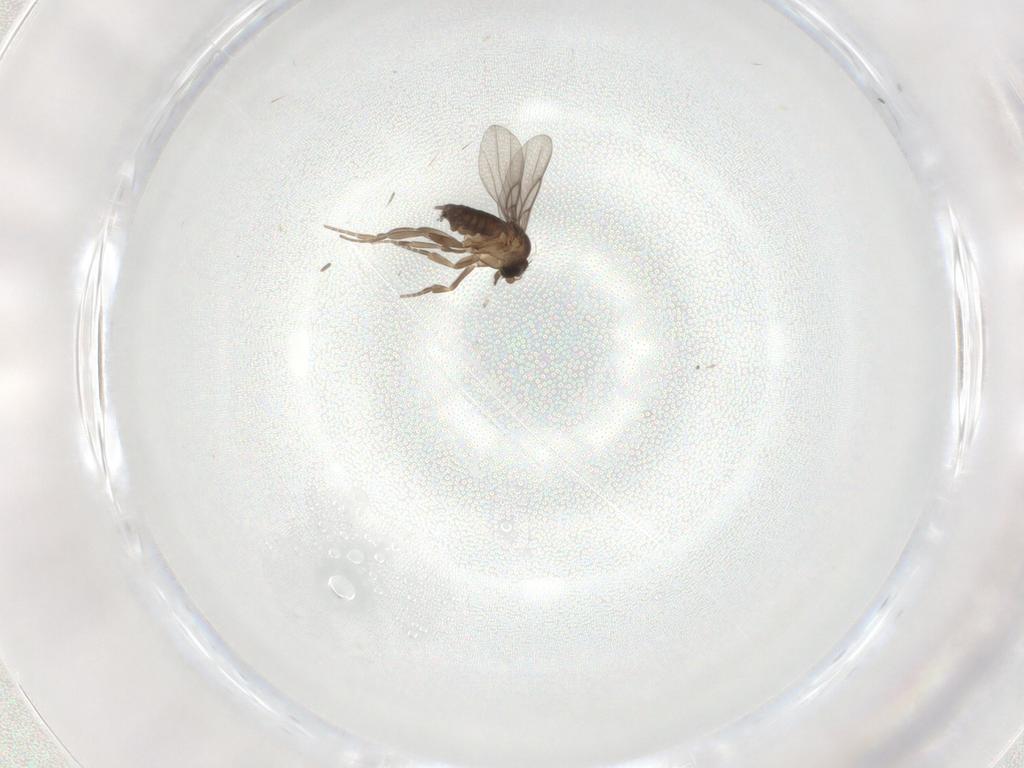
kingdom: Animalia
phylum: Arthropoda
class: Insecta
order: Diptera
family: Phoridae
